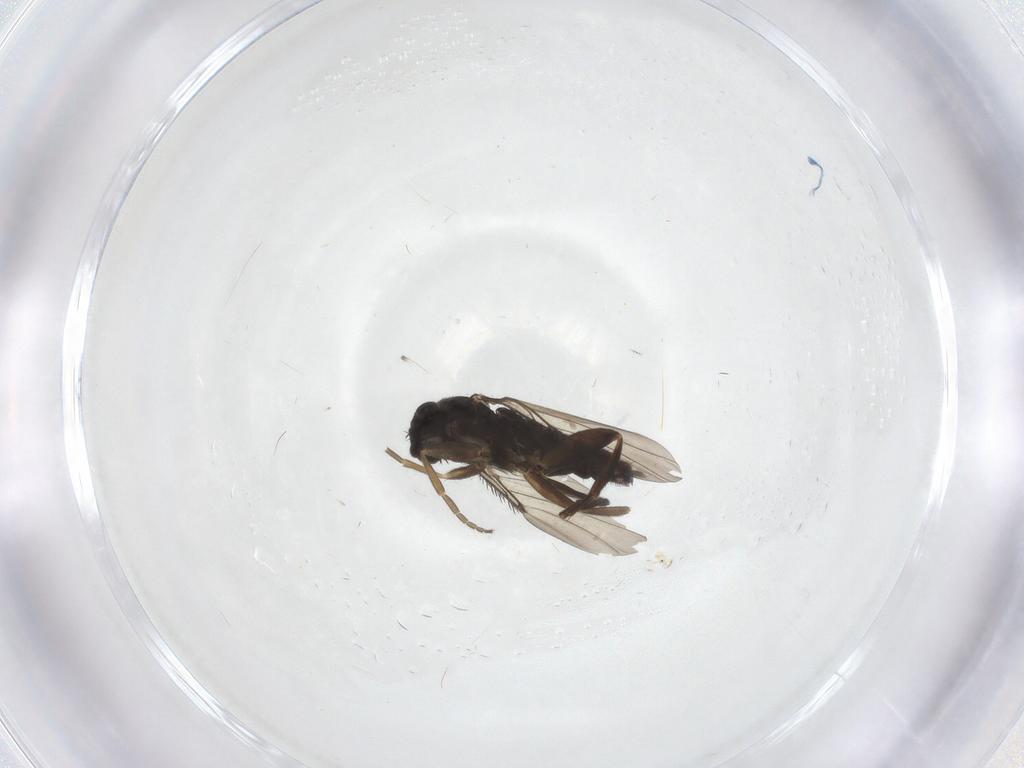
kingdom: Animalia
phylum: Arthropoda
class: Insecta
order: Diptera
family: Phoridae
